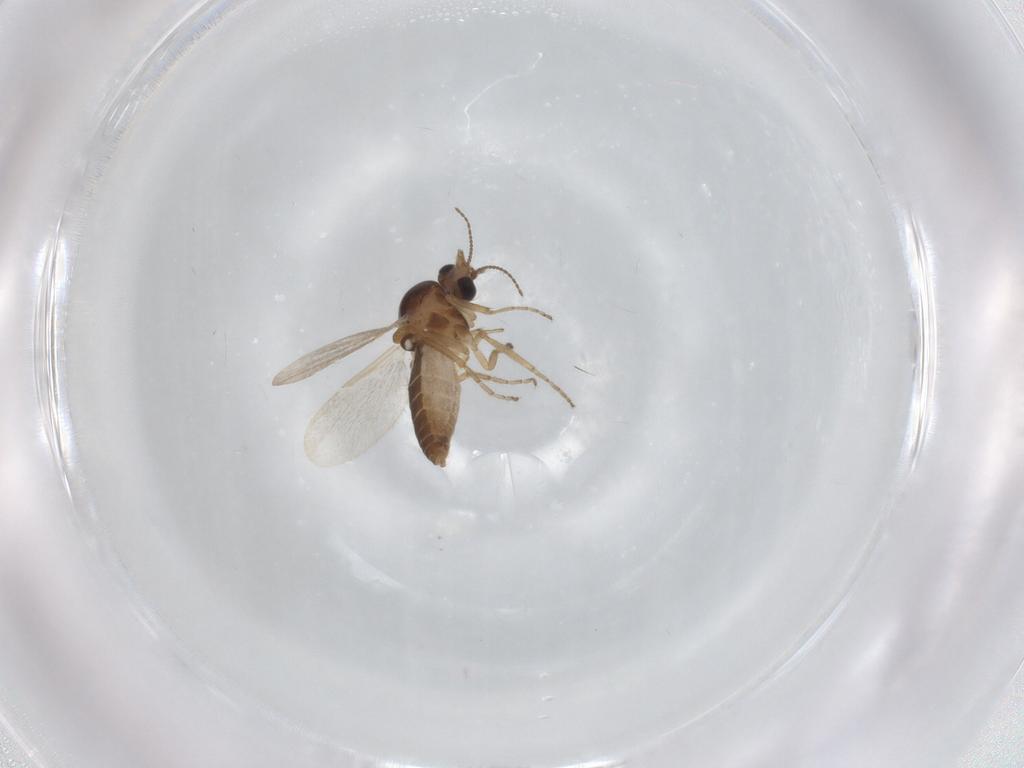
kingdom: Animalia
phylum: Arthropoda
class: Insecta
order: Diptera
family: Ceratopogonidae
